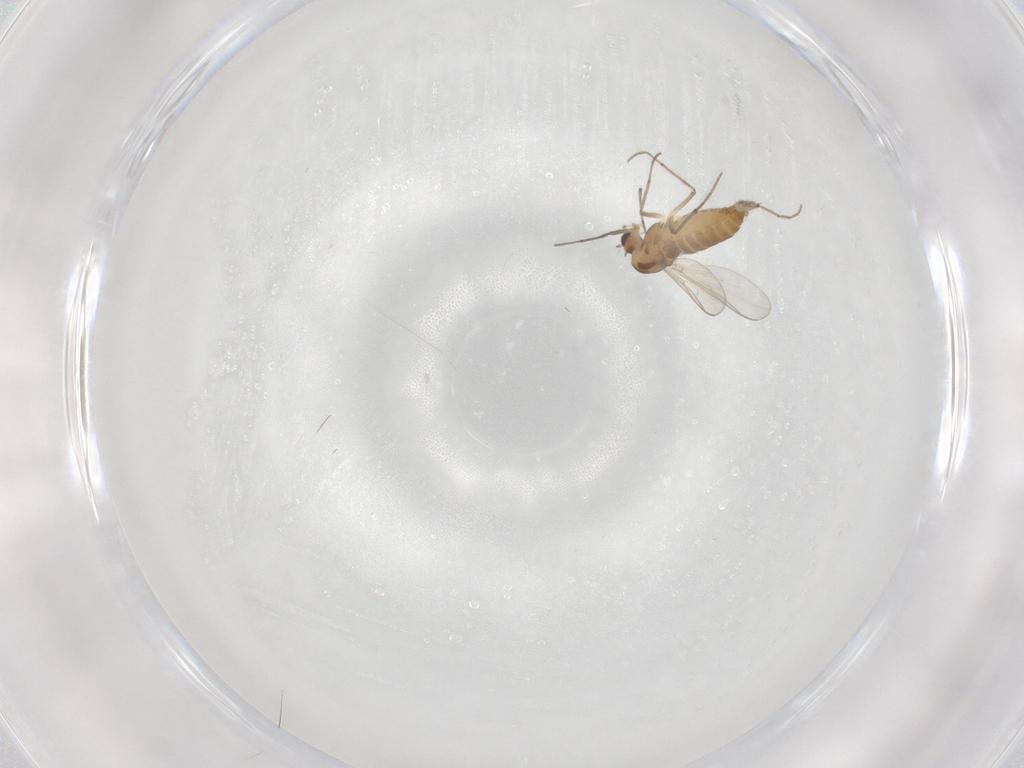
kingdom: Animalia
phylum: Arthropoda
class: Insecta
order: Diptera
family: Chironomidae
